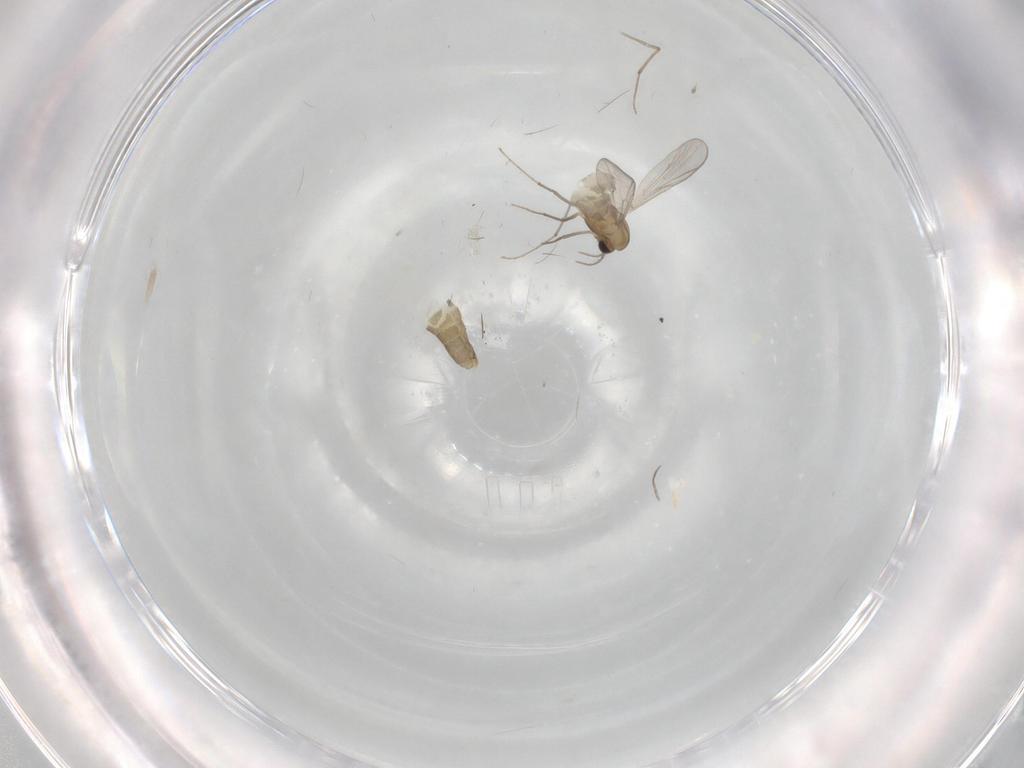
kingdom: Animalia
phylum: Arthropoda
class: Insecta
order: Diptera
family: Chironomidae
